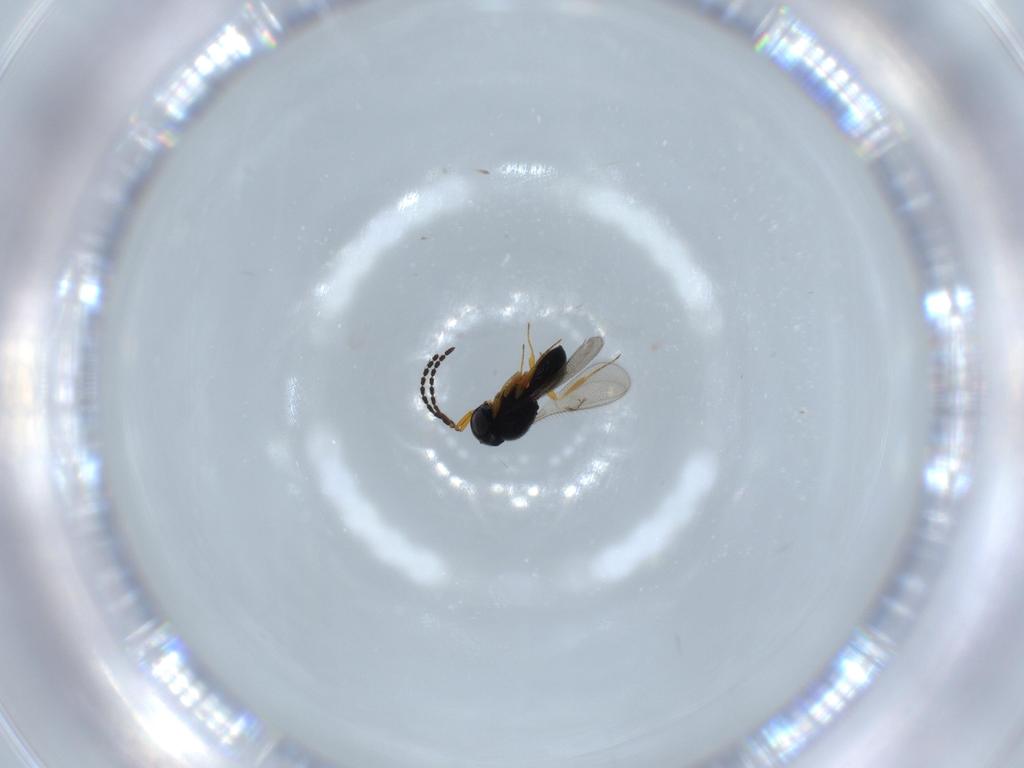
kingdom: Animalia
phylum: Arthropoda
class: Insecta
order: Hymenoptera
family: Scelionidae
